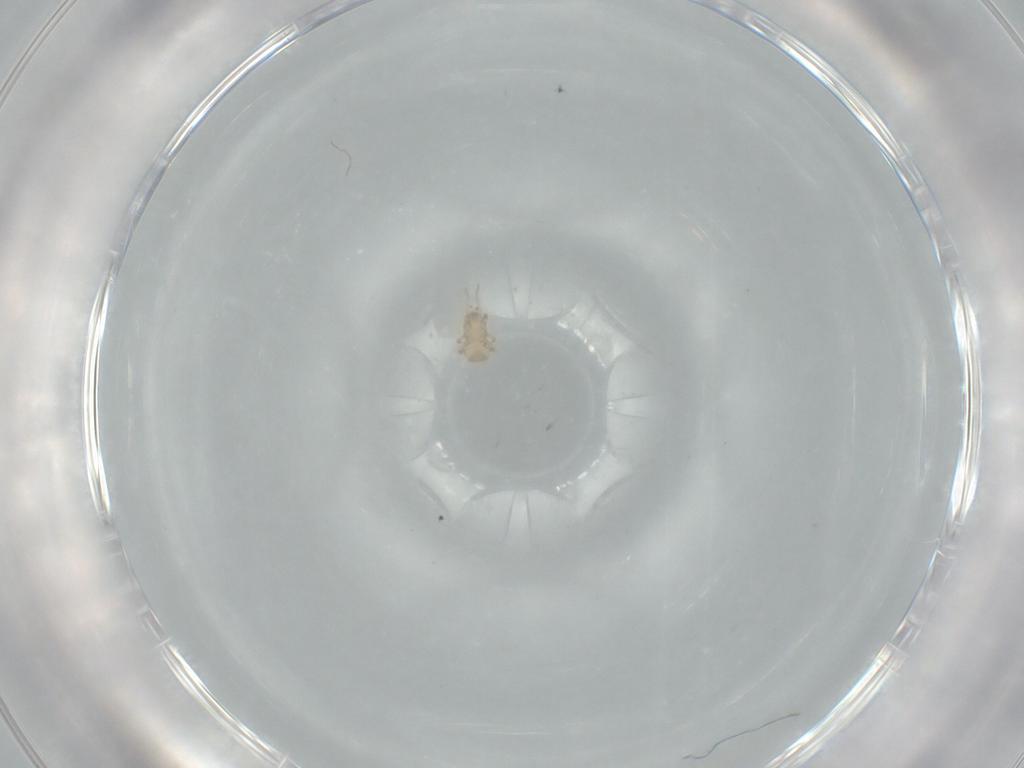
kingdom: Animalia
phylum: Arthropoda
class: Arachnida
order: Mesostigmata
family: Digamasellidae
